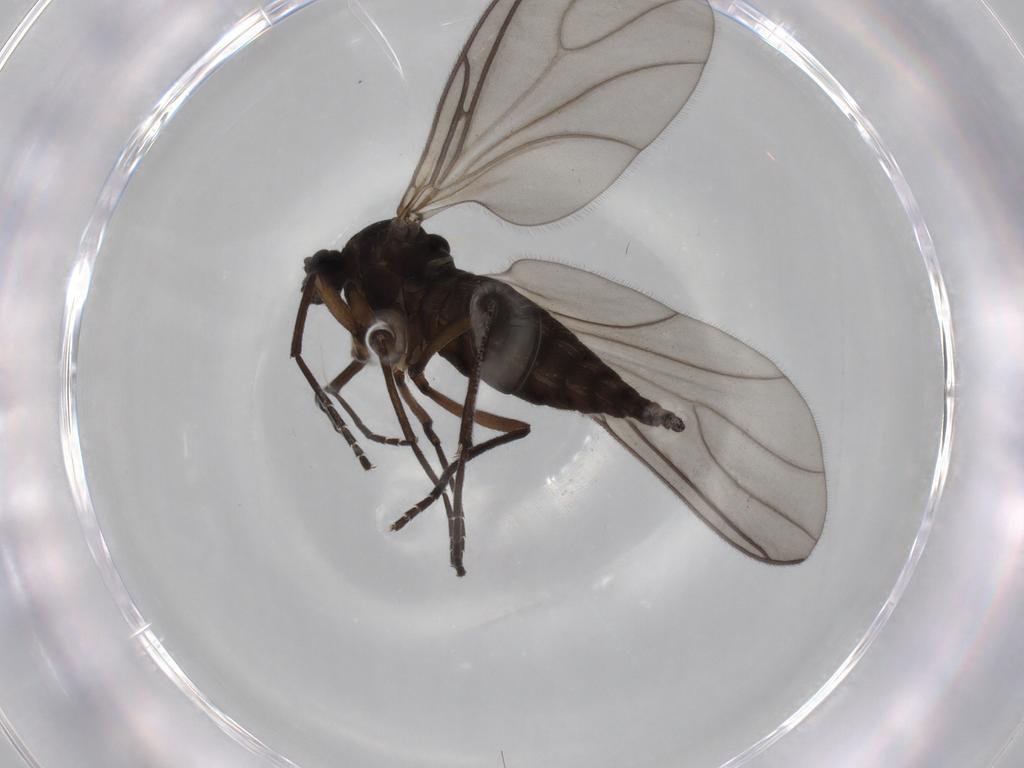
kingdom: Animalia
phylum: Arthropoda
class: Insecta
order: Diptera
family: Sciaridae
